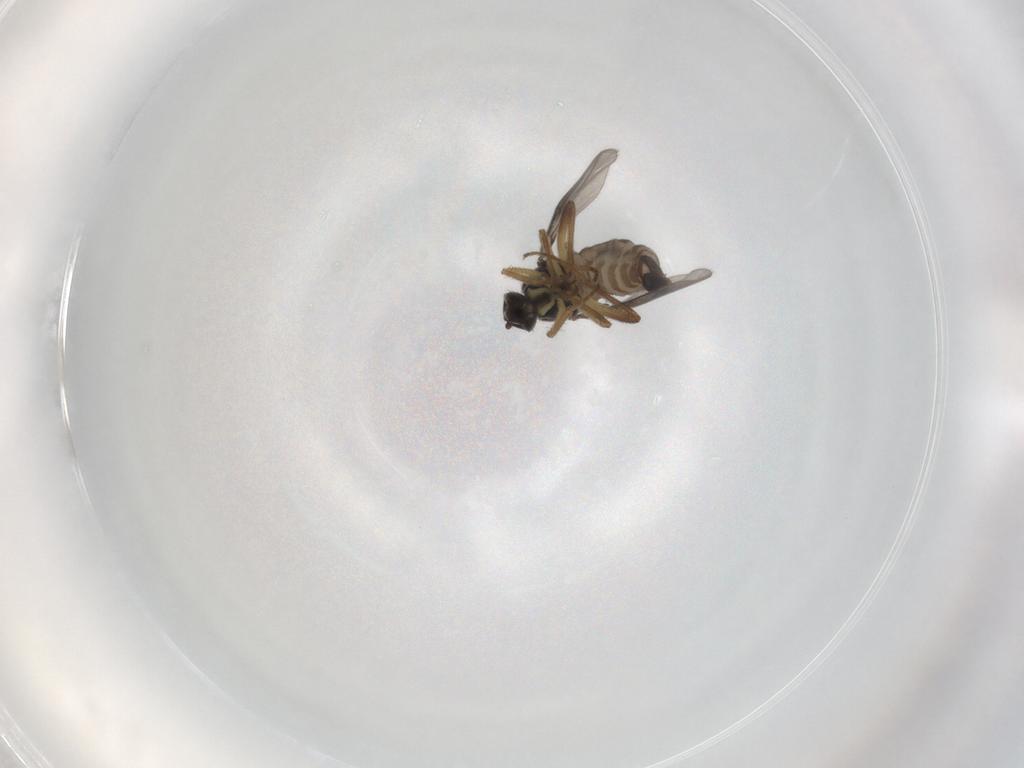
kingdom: Animalia
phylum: Arthropoda
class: Insecta
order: Diptera
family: Hybotidae
